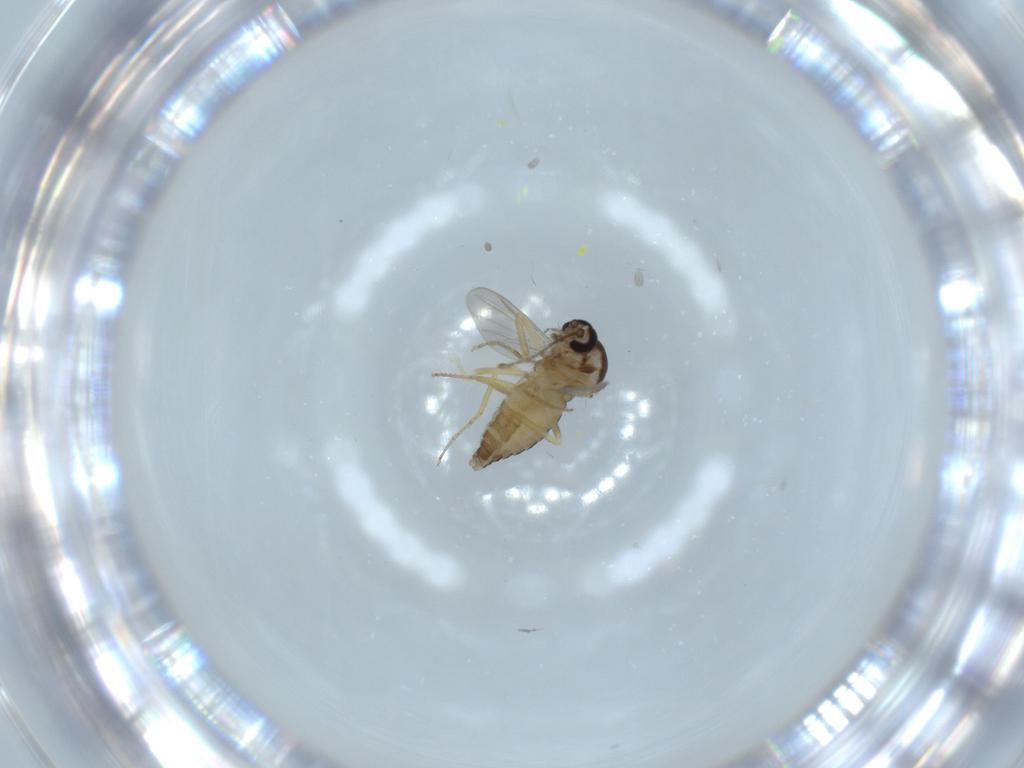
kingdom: Animalia
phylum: Arthropoda
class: Insecta
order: Diptera
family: Ceratopogonidae
